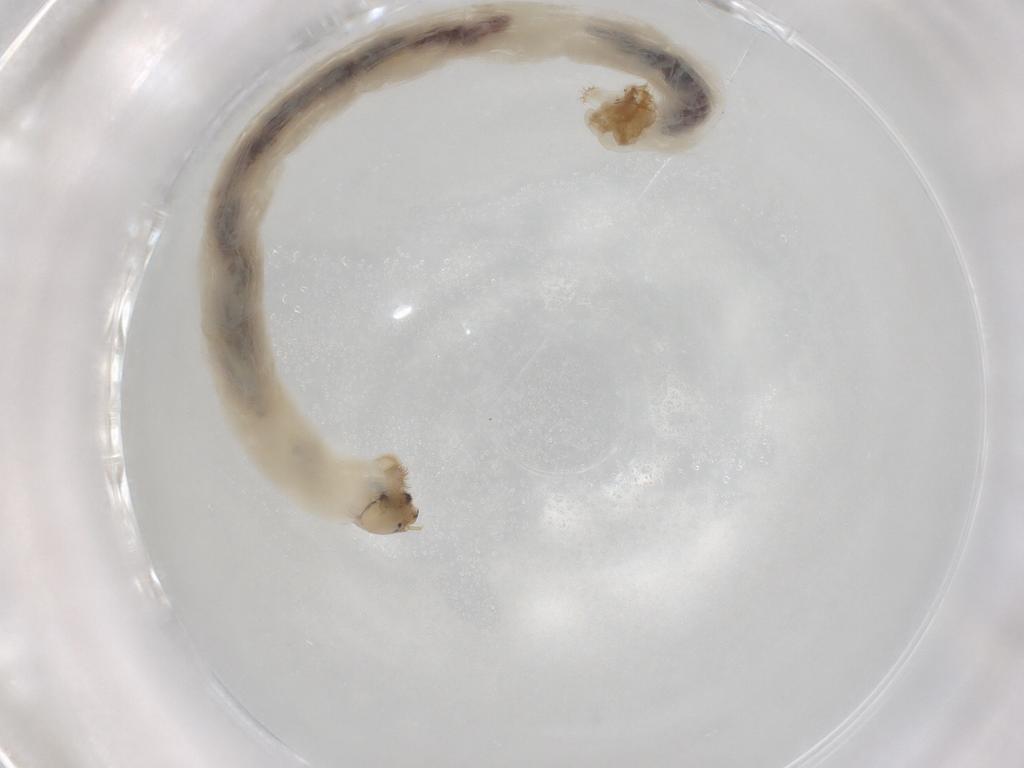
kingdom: Animalia
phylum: Arthropoda
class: Insecta
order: Diptera
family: Chironomidae
